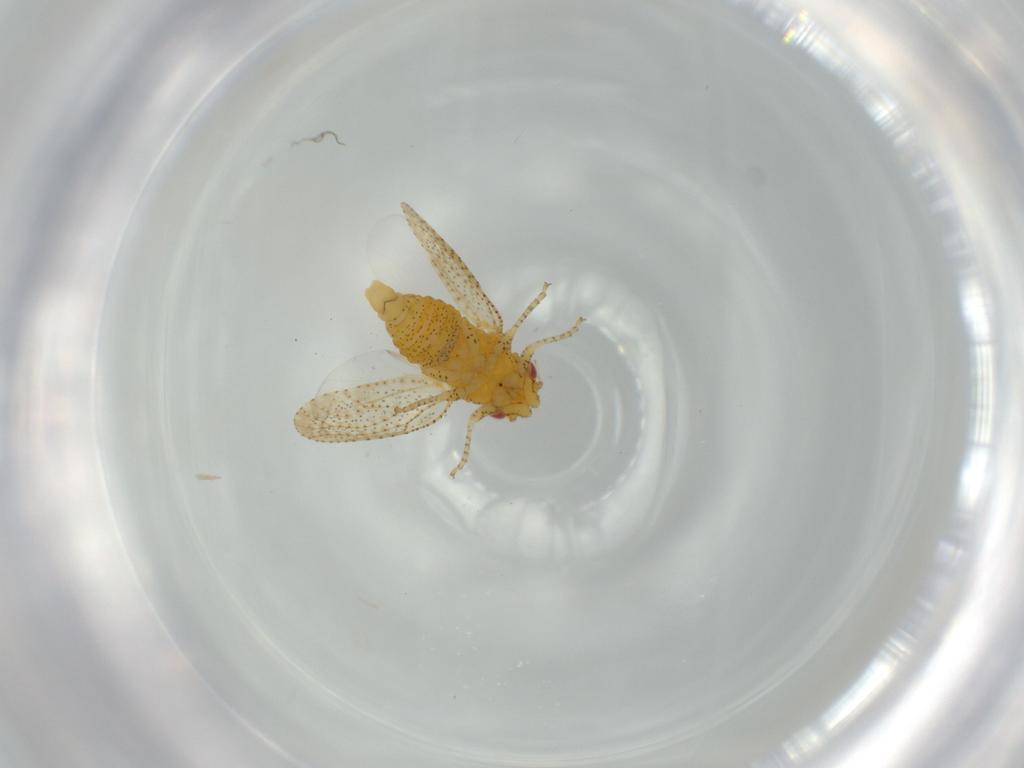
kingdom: Animalia
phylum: Arthropoda
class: Insecta
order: Hemiptera
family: Psyllidae
